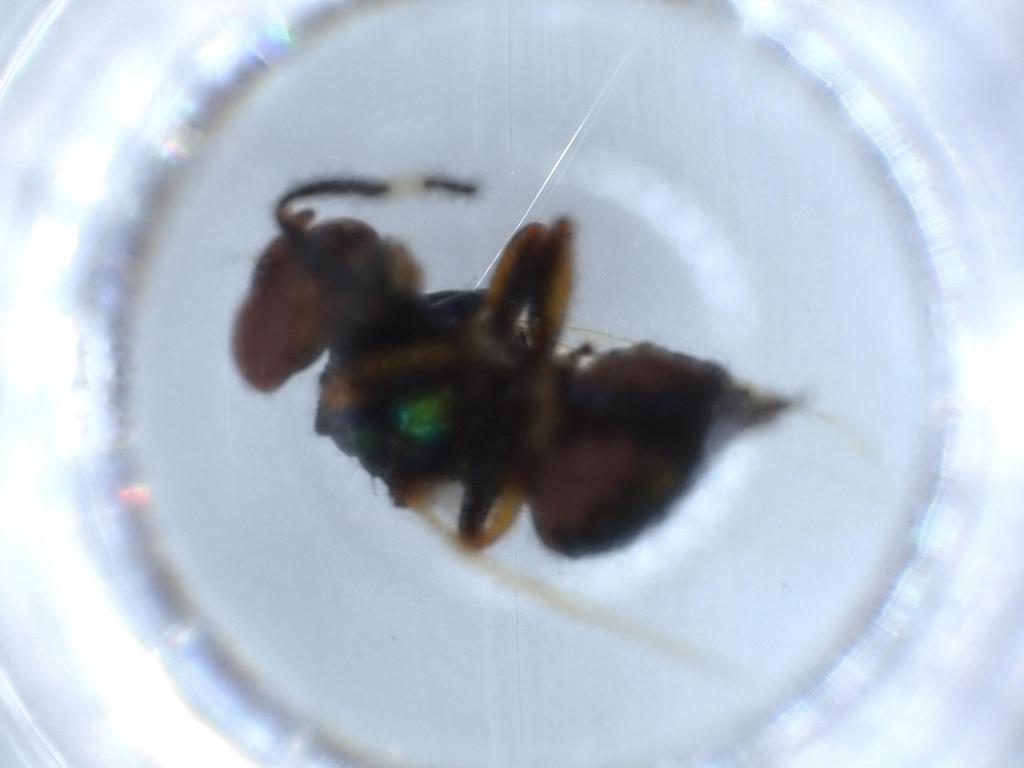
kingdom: Animalia
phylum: Arthropoda
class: Insecta
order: Diptera
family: Ulidiidae
